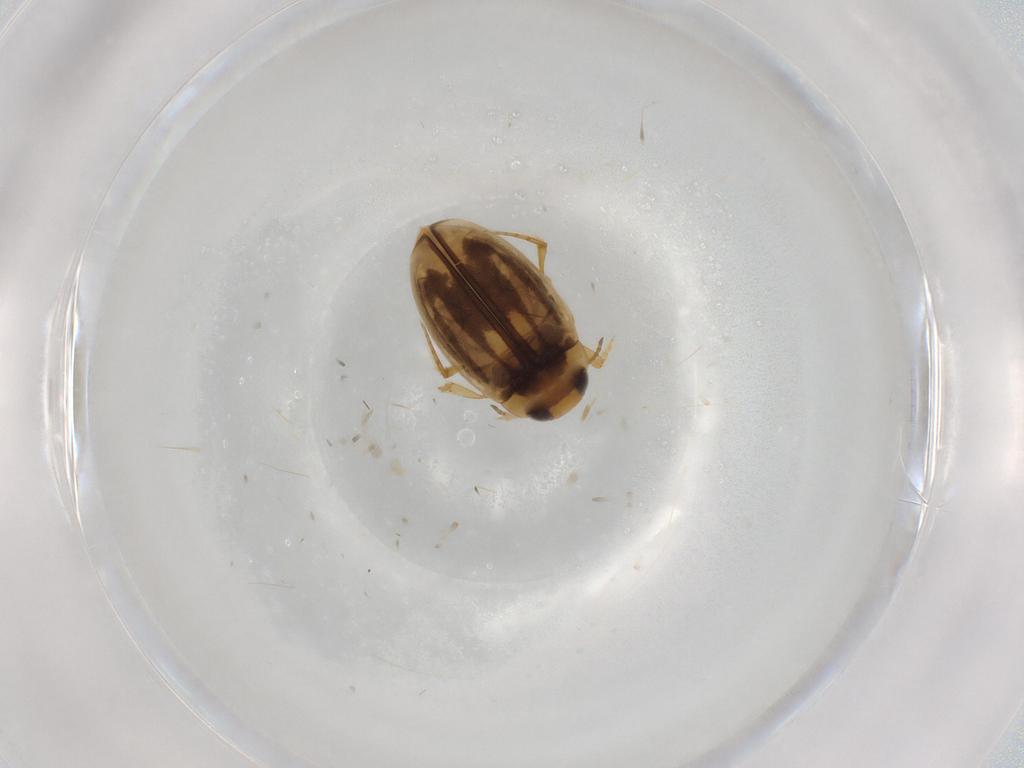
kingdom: Animalia
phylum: Arthropoda
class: Insecta
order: Coleoptera
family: Dytiscidae
